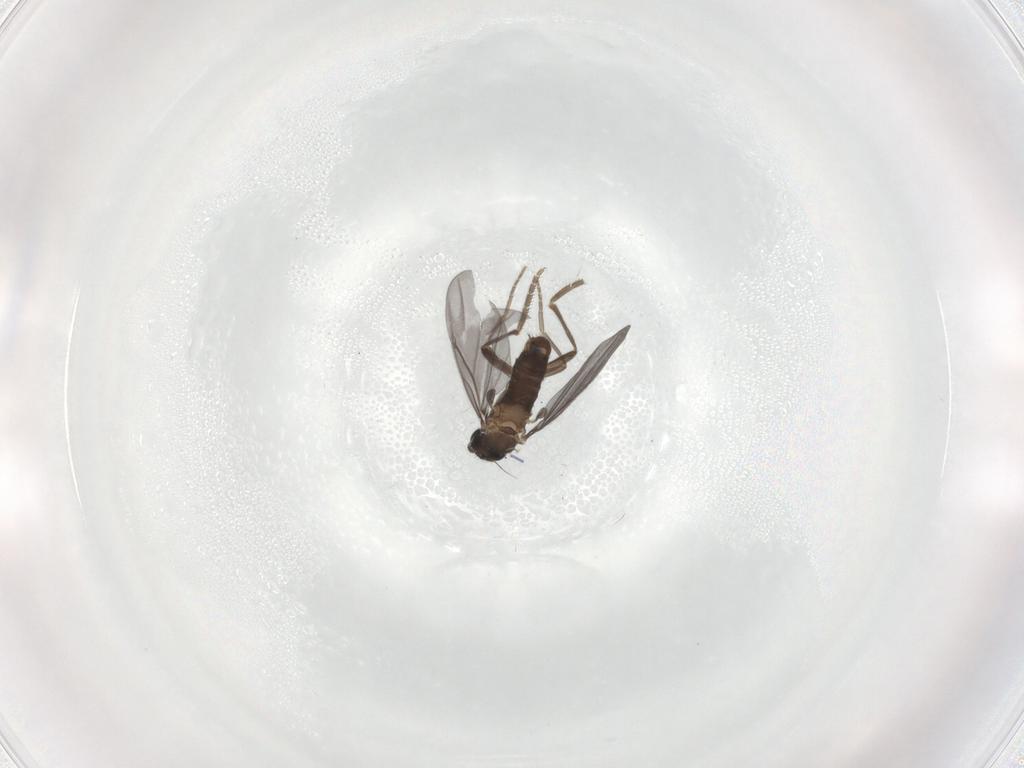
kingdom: Animalia
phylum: Arthropoda
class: Insecta
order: Diptera
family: Phoridae
